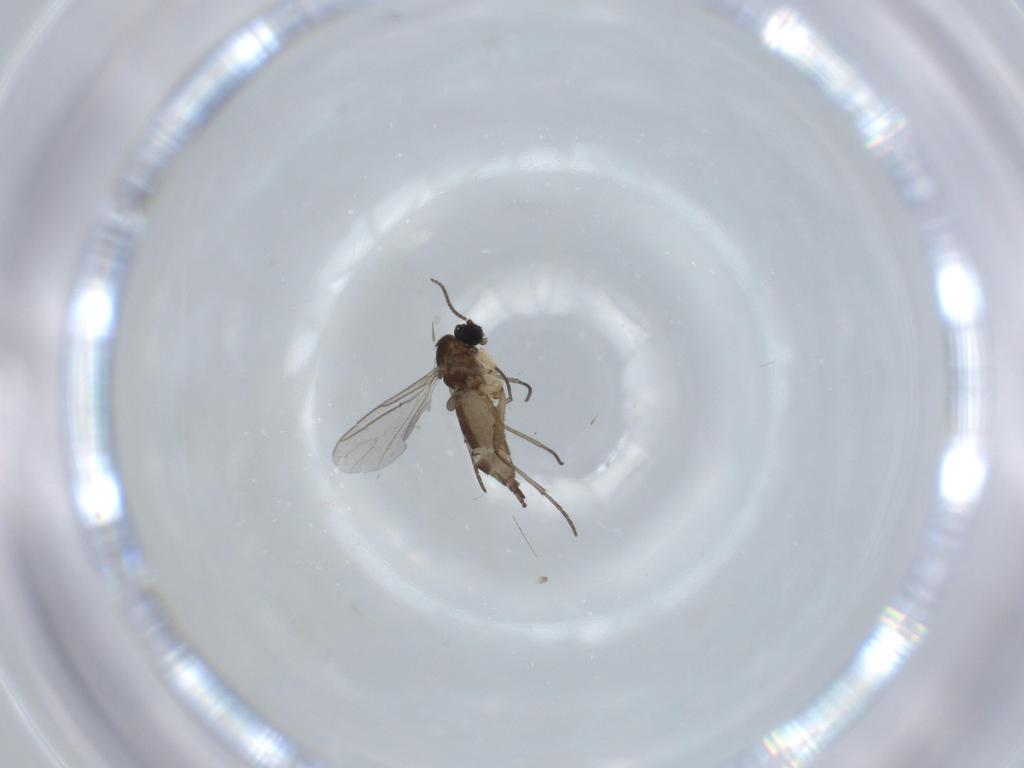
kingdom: Animalia
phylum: Arthropoda
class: Insecta
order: Diptera
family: Sciaridae
